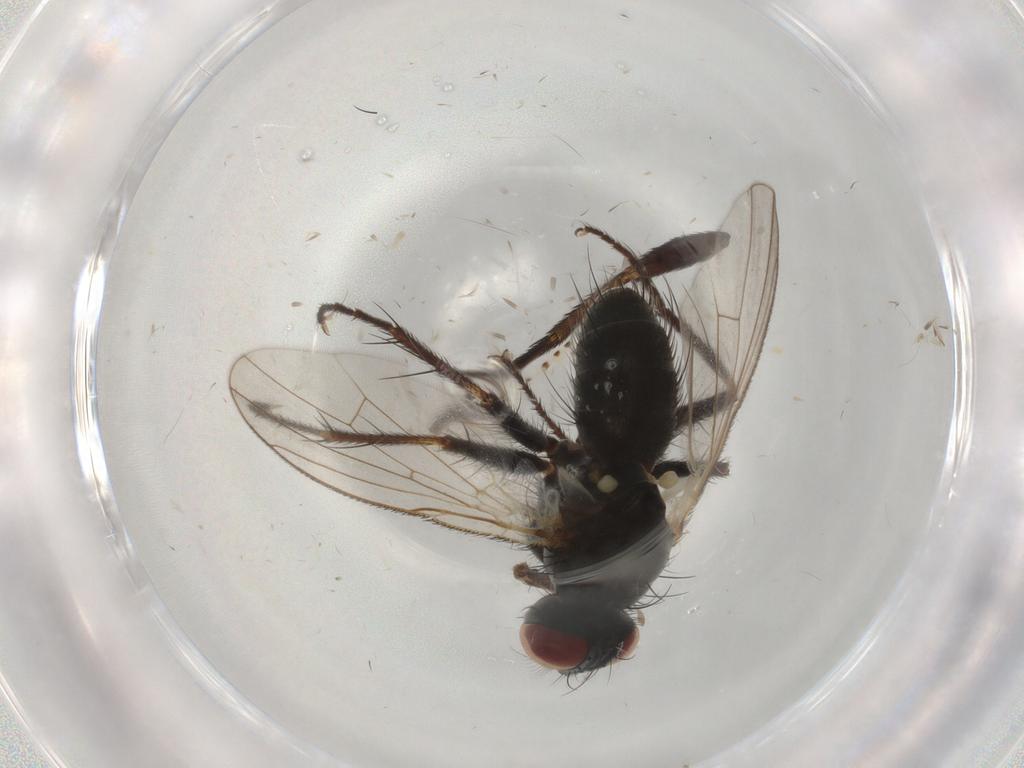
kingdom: Animalia
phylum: Arthropoda
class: Insecta
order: Diptera
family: Muscidae
